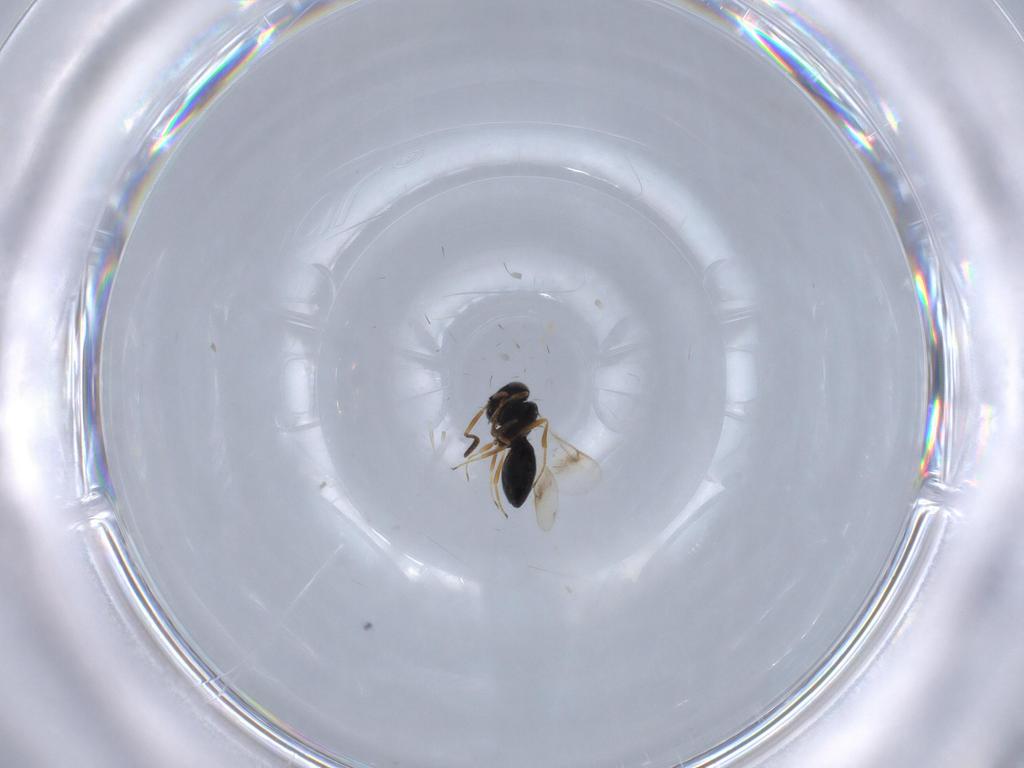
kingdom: Animalia
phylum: Arthropoda
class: Insecta
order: Hymenoptera
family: Scelionidae
